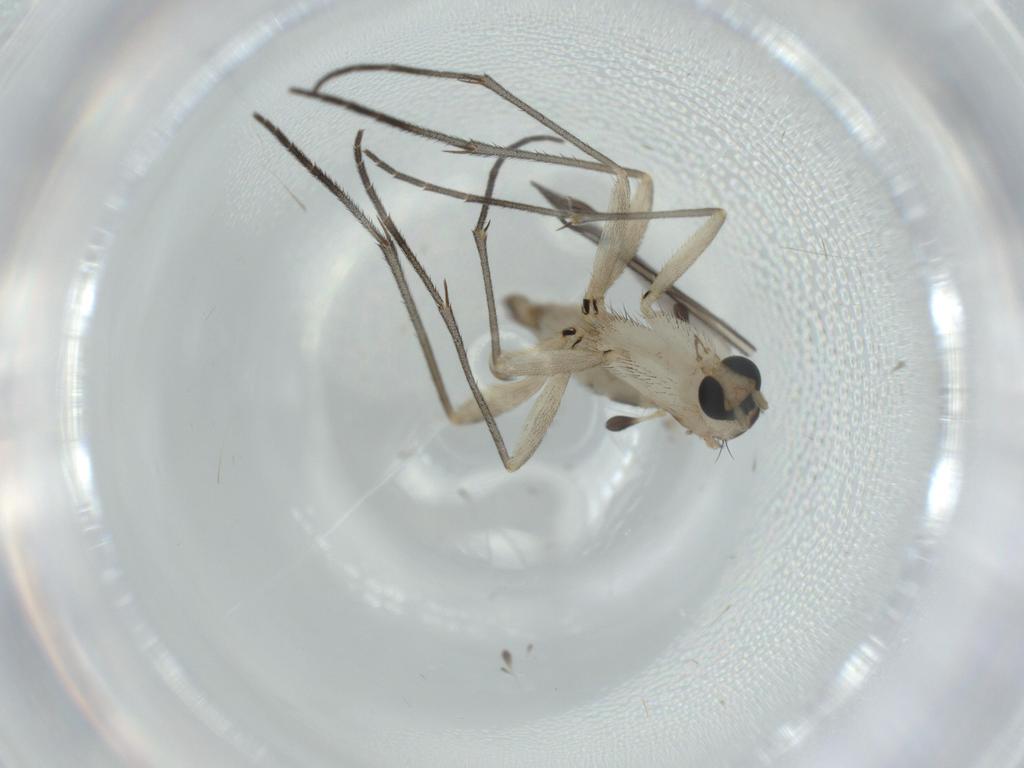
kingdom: Animalia
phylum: Arthropoda
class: Insecta
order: Diptera
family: Sciaridae
